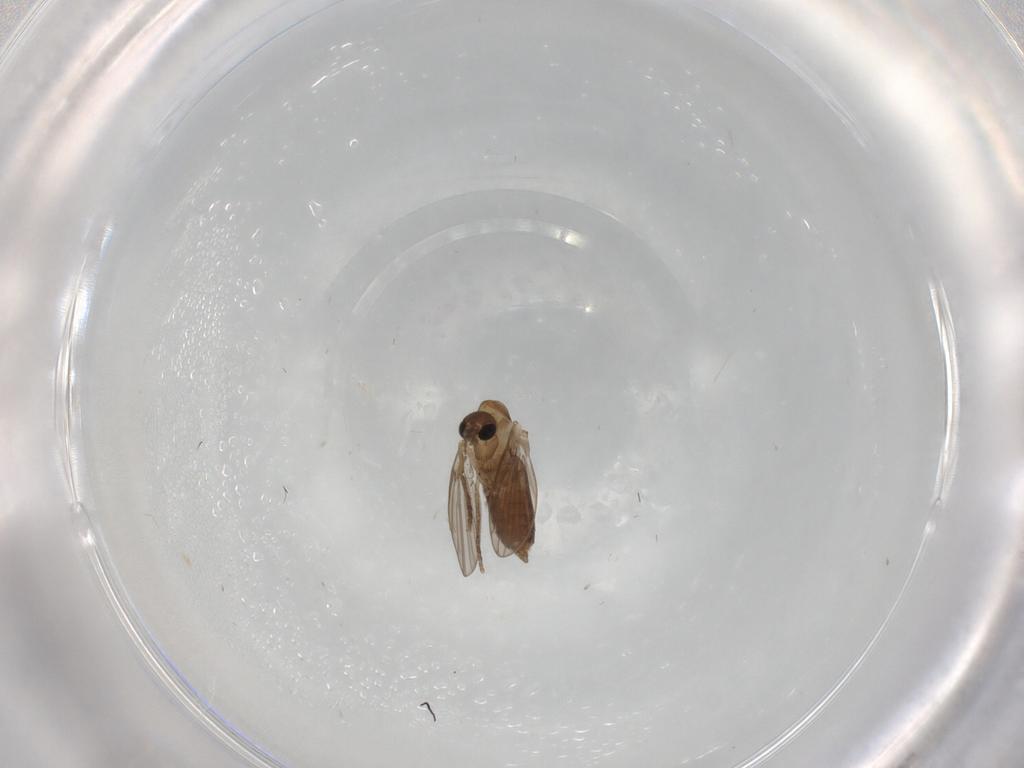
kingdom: Animalia
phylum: Arthropoda
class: Insecta
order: Diptera
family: Phoridae
